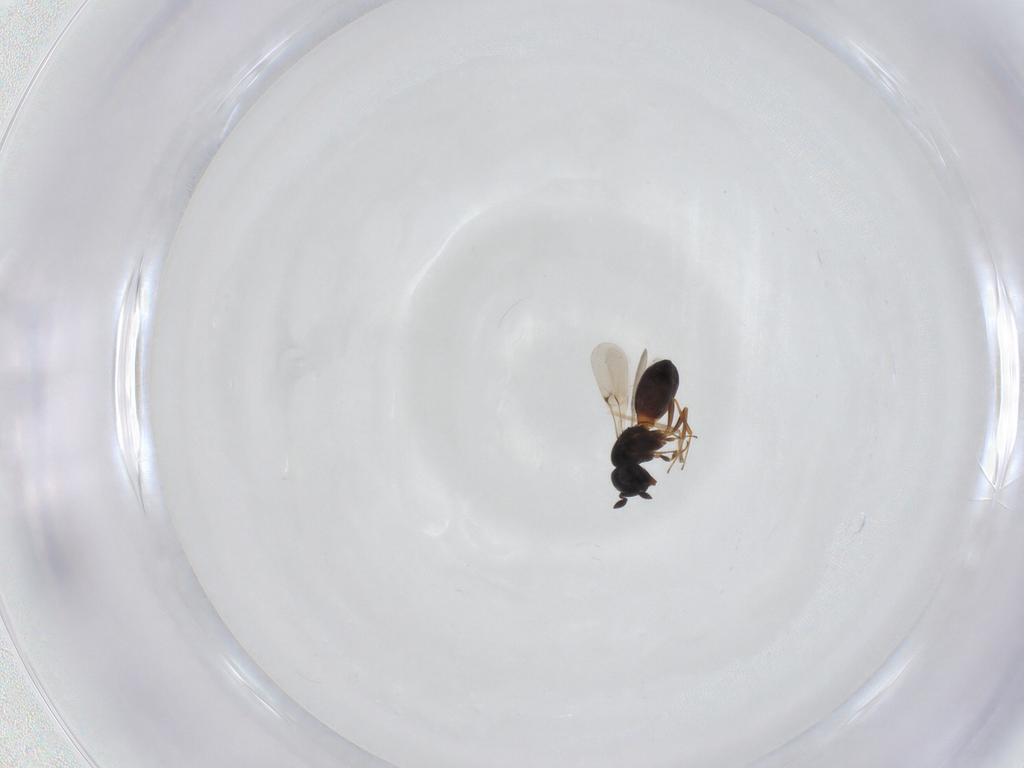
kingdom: Animalia
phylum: Arthropoda
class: Insecta
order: Hymenoptera
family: Scelionidae
